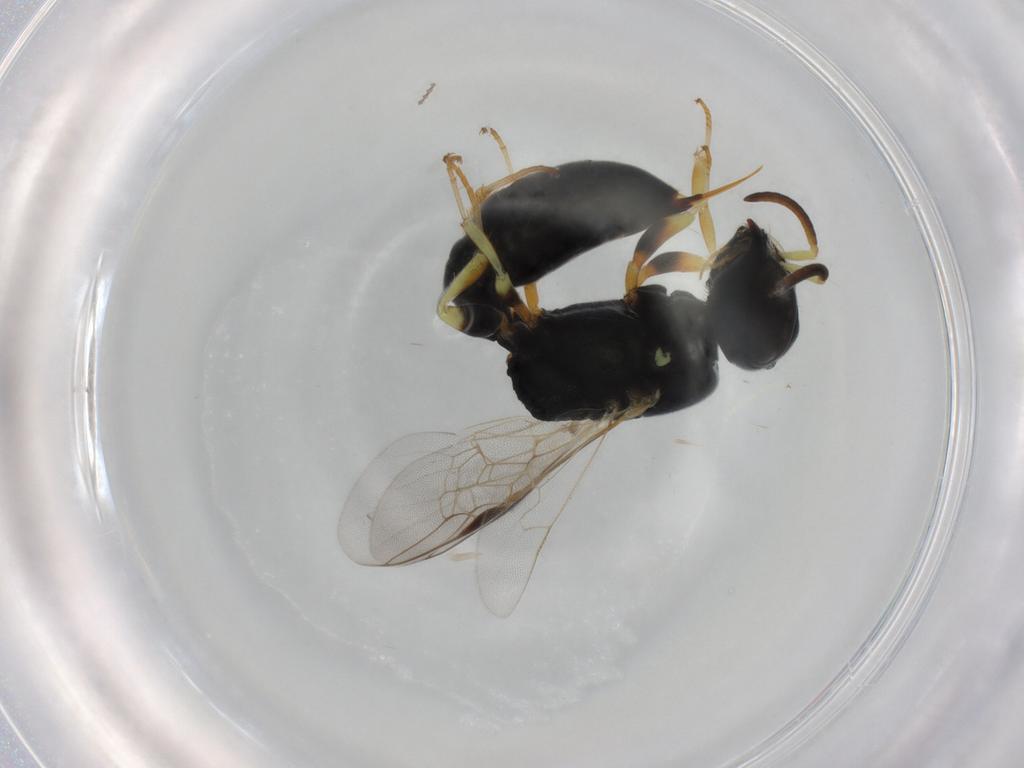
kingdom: Animalia
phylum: Arthropoda
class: Insecta
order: Hymenoptera
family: Pemphredonidae
